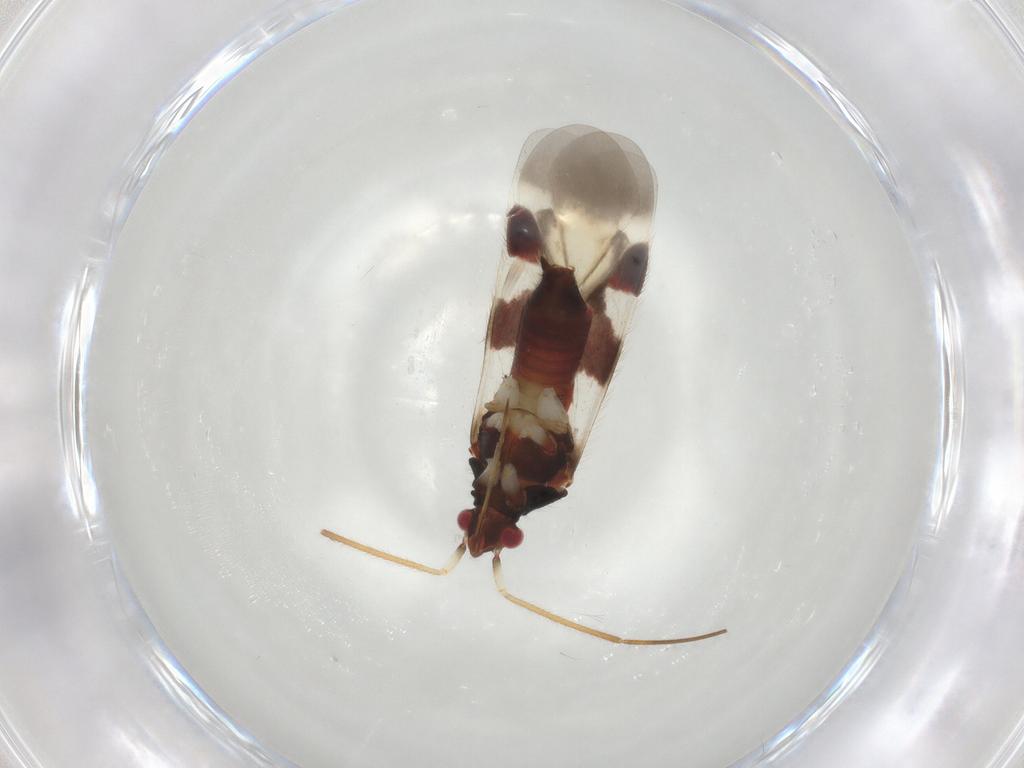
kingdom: Animalia
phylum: Arthropoda
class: Insecta
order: Hemiptera
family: Miridae
